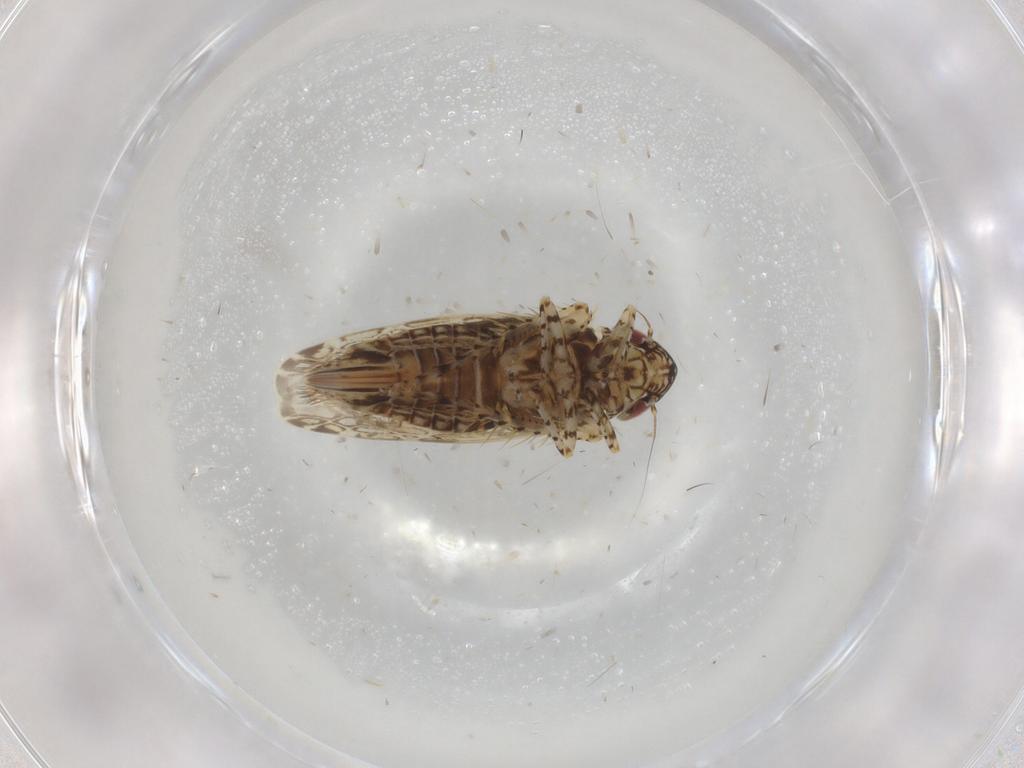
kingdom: Animalia
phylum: Arthropoda
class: Insecta
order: Hemiptera
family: Cicadellidae
